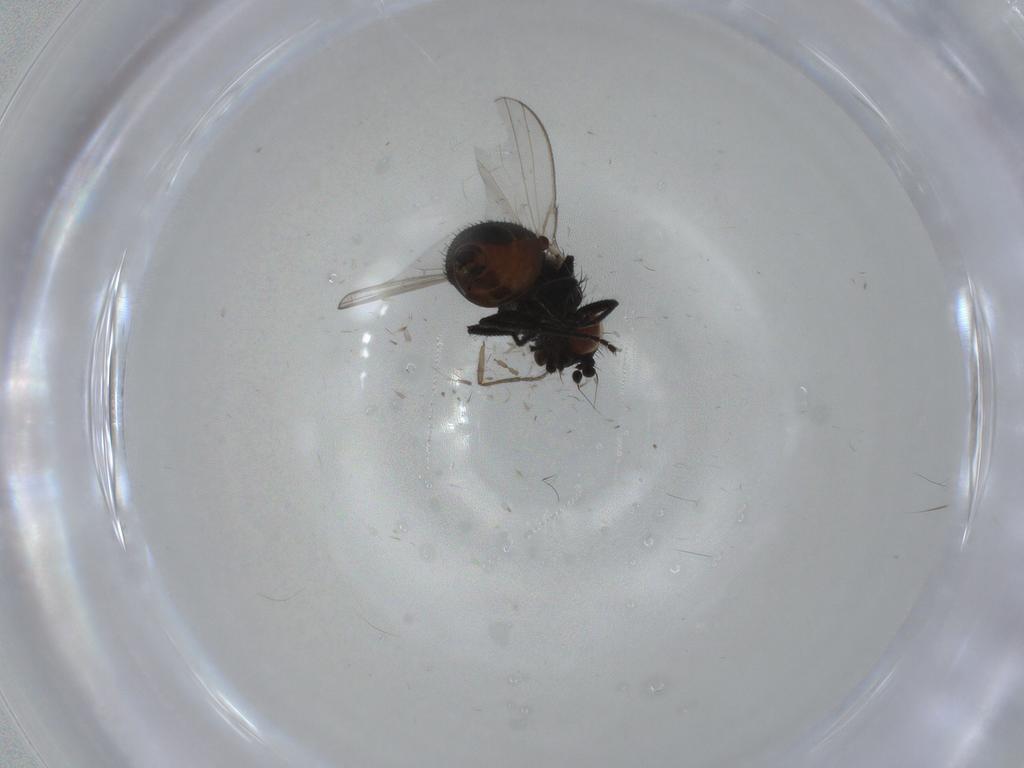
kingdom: Animalia
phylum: Arthropoda
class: Insecta
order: Diptera
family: Milichiidae
